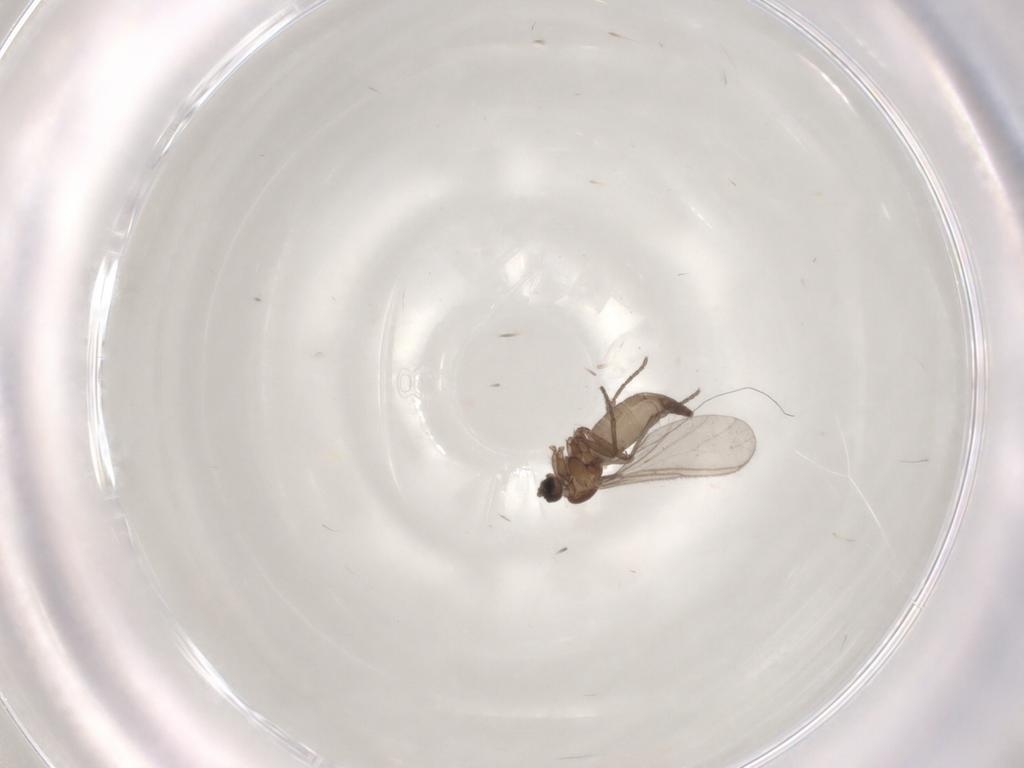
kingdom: Animalia
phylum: Arthropoda
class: Insecta
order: Diptera
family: Sciaridae
